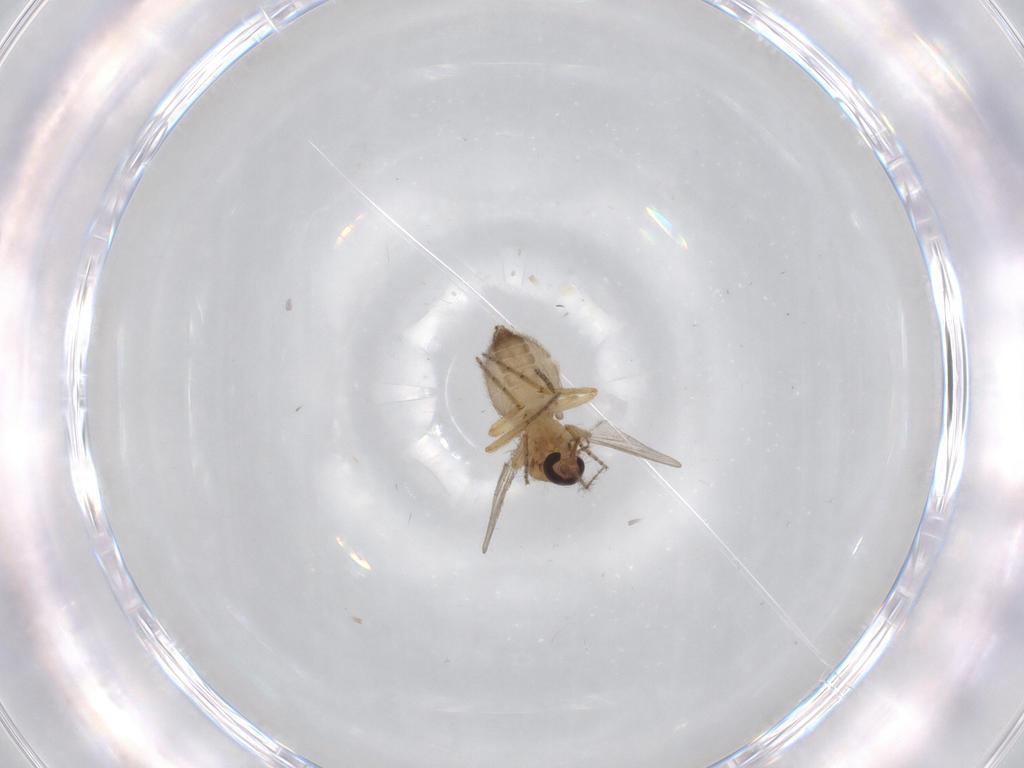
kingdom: Animalia
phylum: Arthropoda
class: Insecta
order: Diptera
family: Ceratopogonidae
